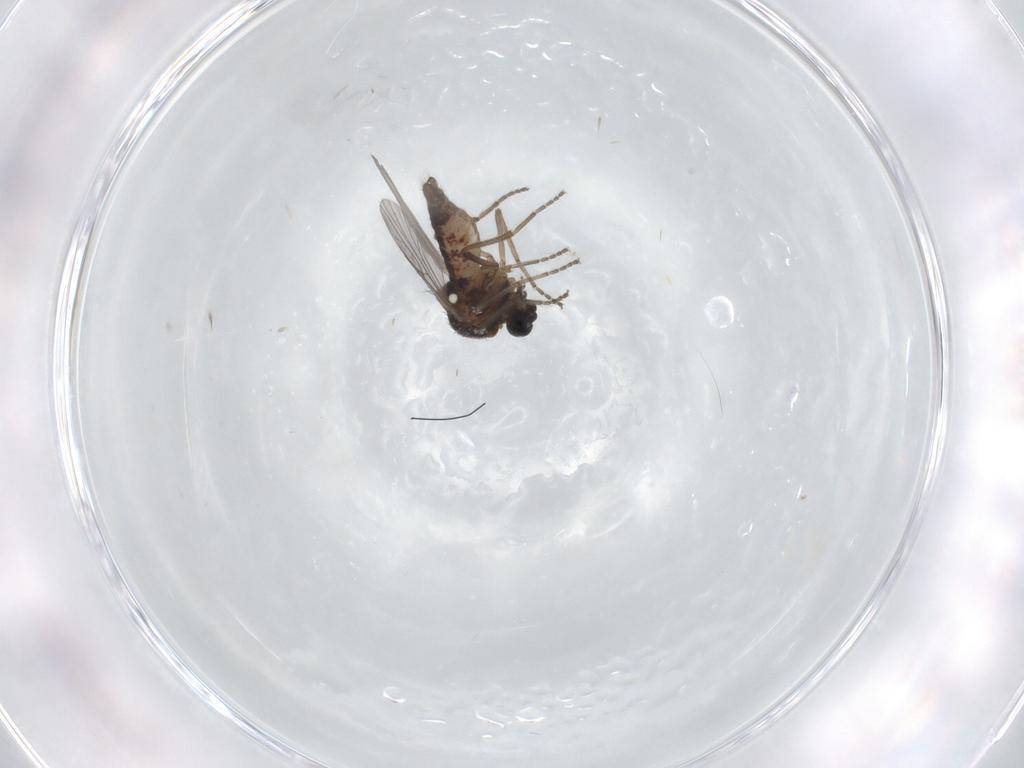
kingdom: Animalia
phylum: Arthropoda
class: Insecta
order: Diptera
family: Ceratopogonidae
